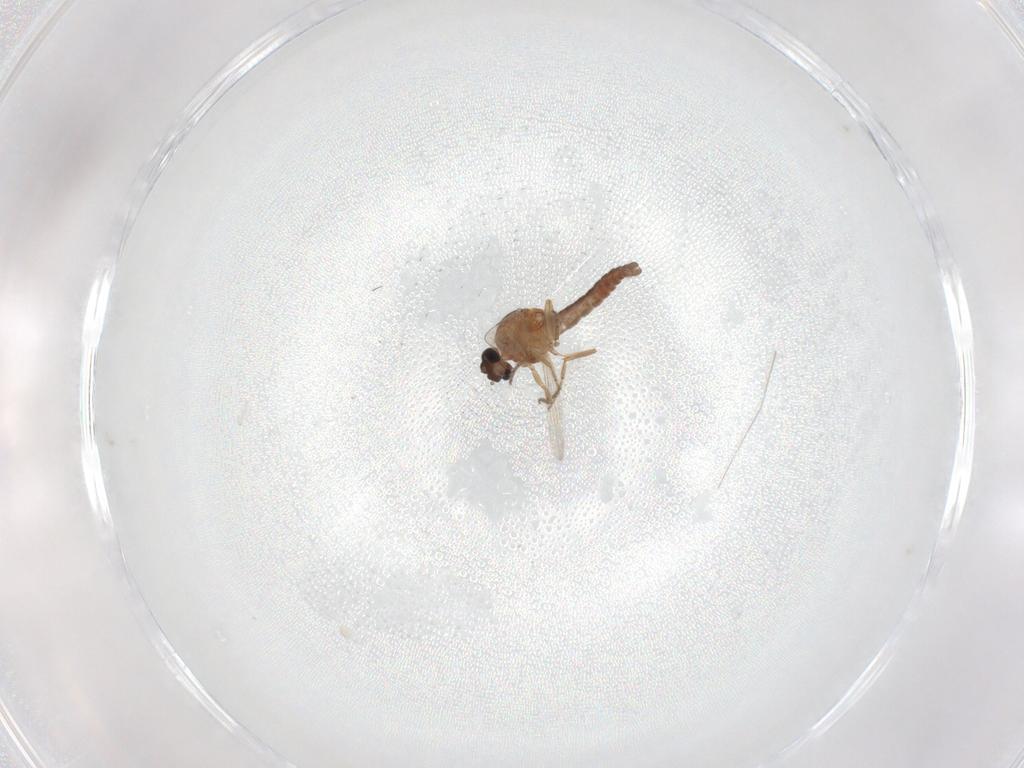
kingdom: Animalia
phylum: Arthropoda
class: Insecta
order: Diptera
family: Ceratopogonidae
